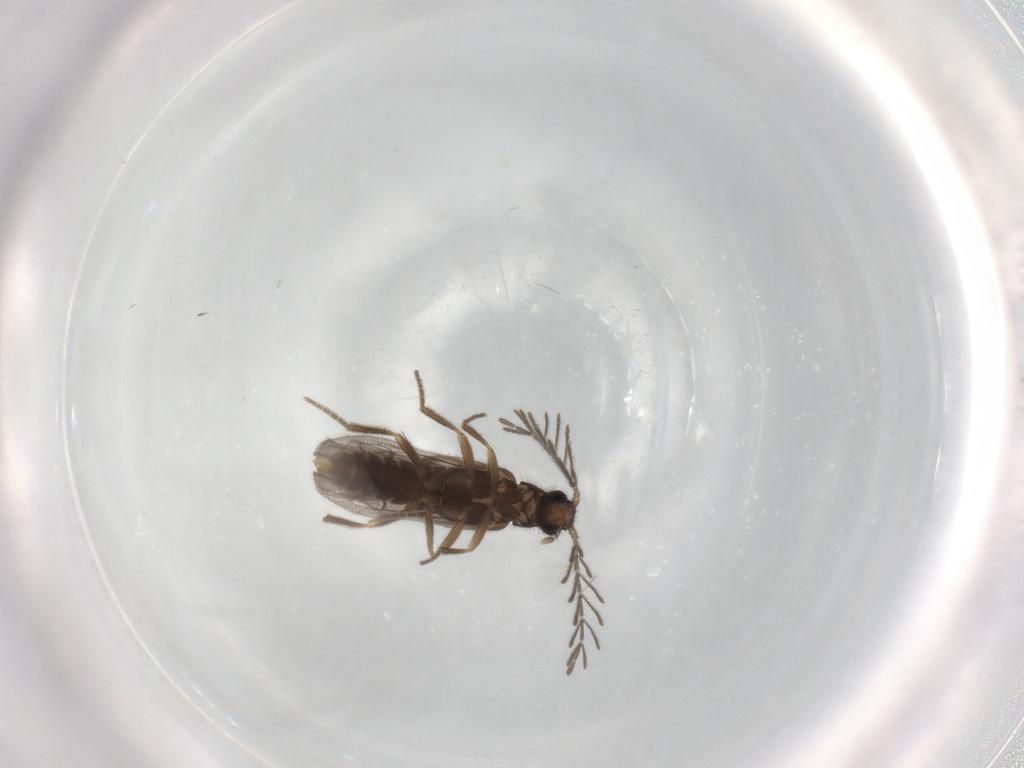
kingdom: Animalia
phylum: Arthropoda
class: Insecta
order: Coleoptera
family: Phengodidae
